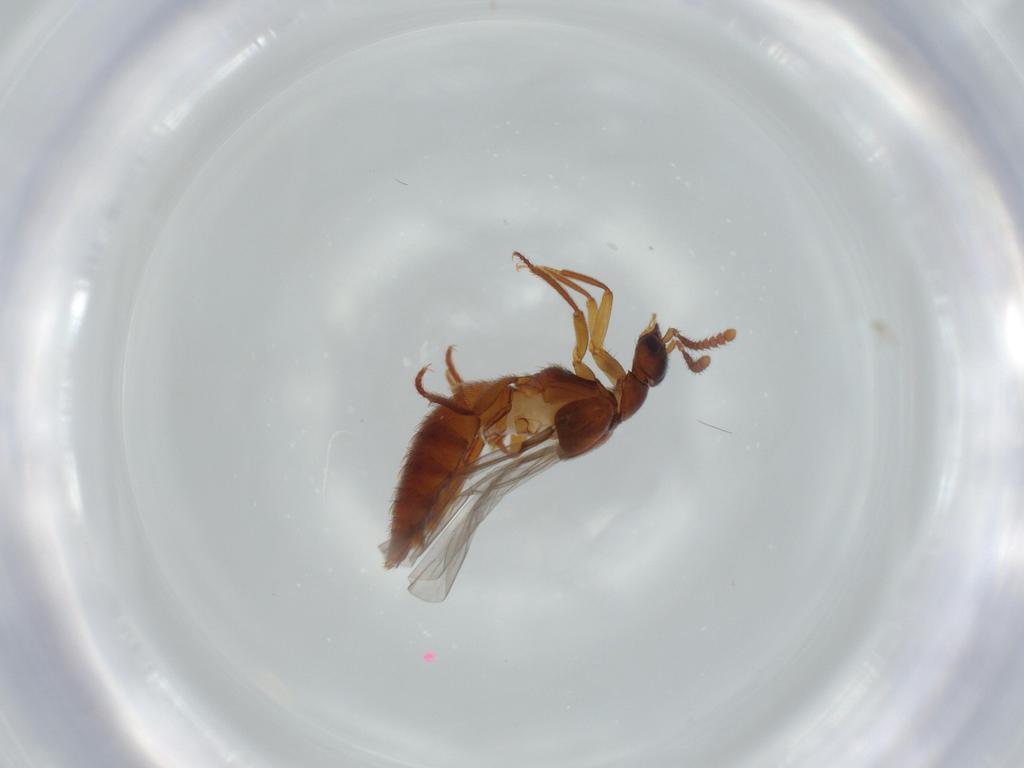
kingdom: Animalia
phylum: Arthropoda
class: Insecta
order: Coleoptera
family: Staphylinidae
